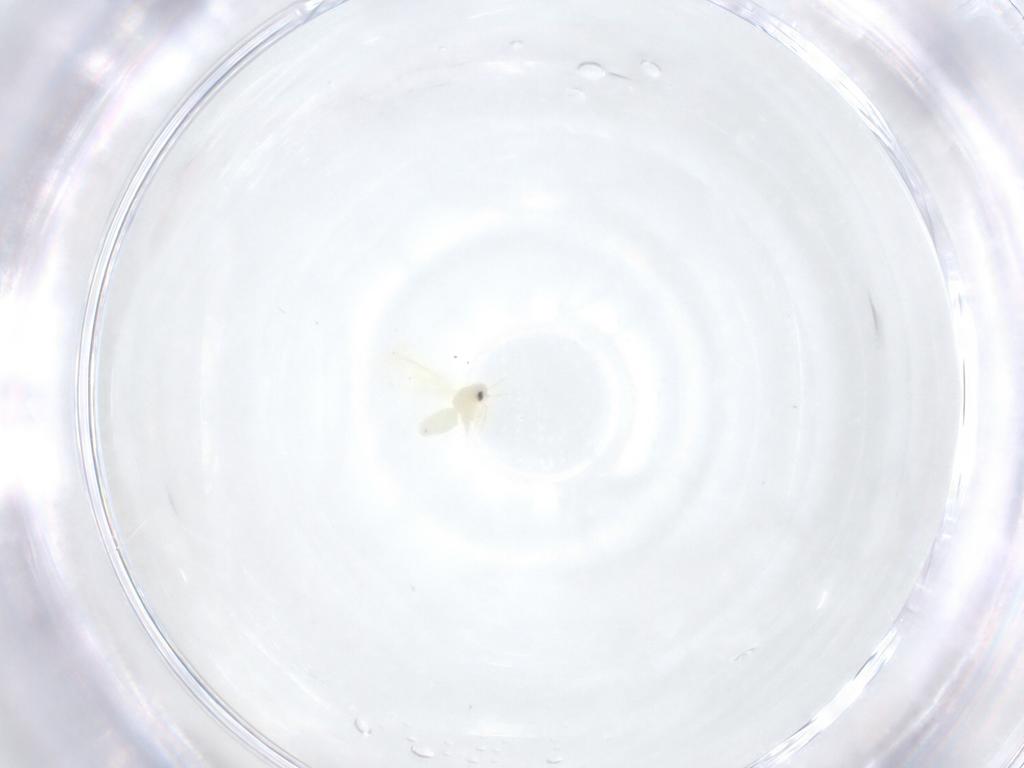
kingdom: Animalia
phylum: Arthropoda
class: Insecta
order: Hemiptera
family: Aleyrodidae
